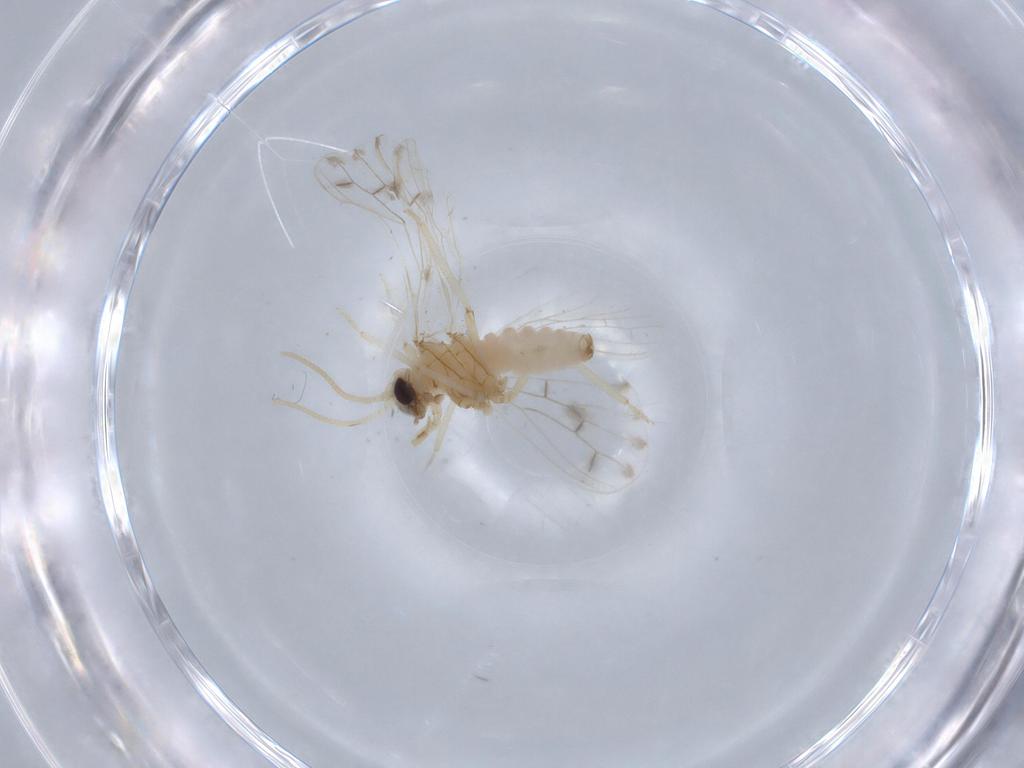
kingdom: Animalia
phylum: Arthropoda
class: Insecta
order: Neuroptera
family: Coniopterygidae
